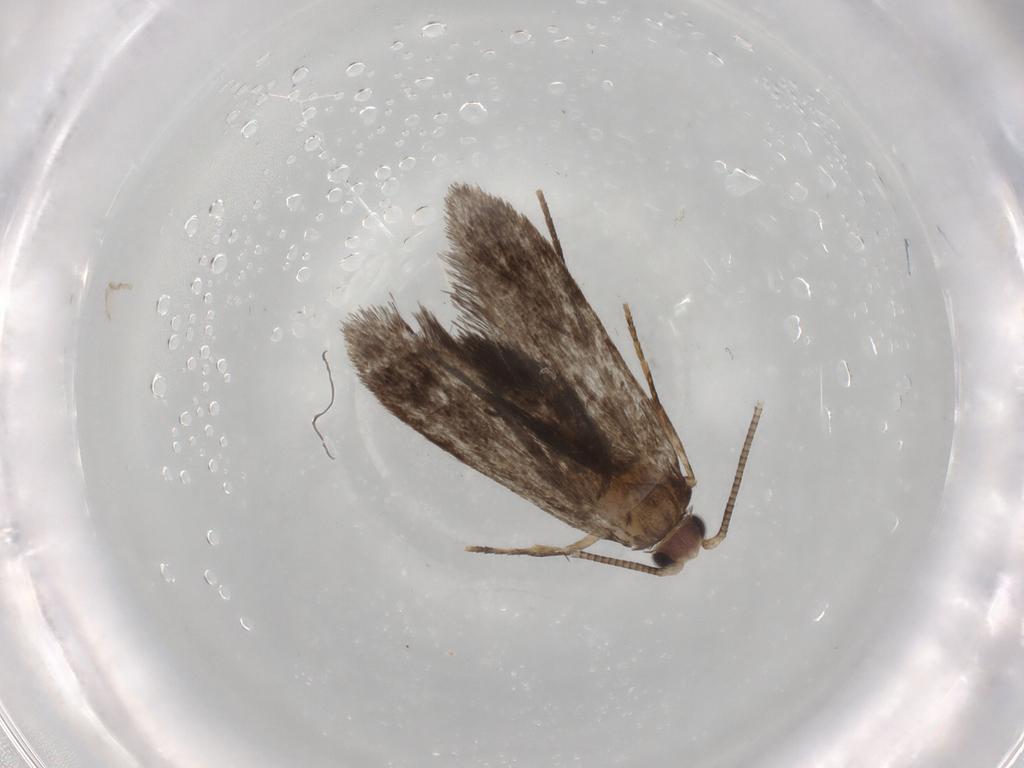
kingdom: Animalia
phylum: Arthropoda
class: Insecta
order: Lepidoptera
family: Nepticulidae
